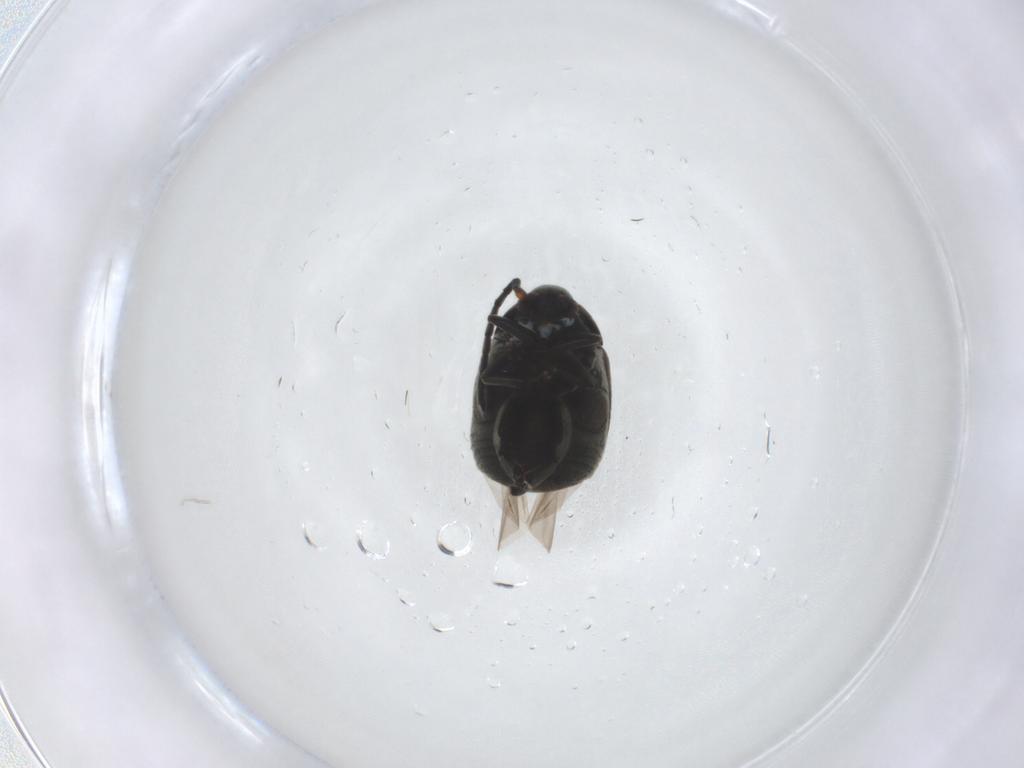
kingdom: Animalia
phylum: Arthropoda
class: Insecta
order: Coleoptera
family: Chrysomelidae
